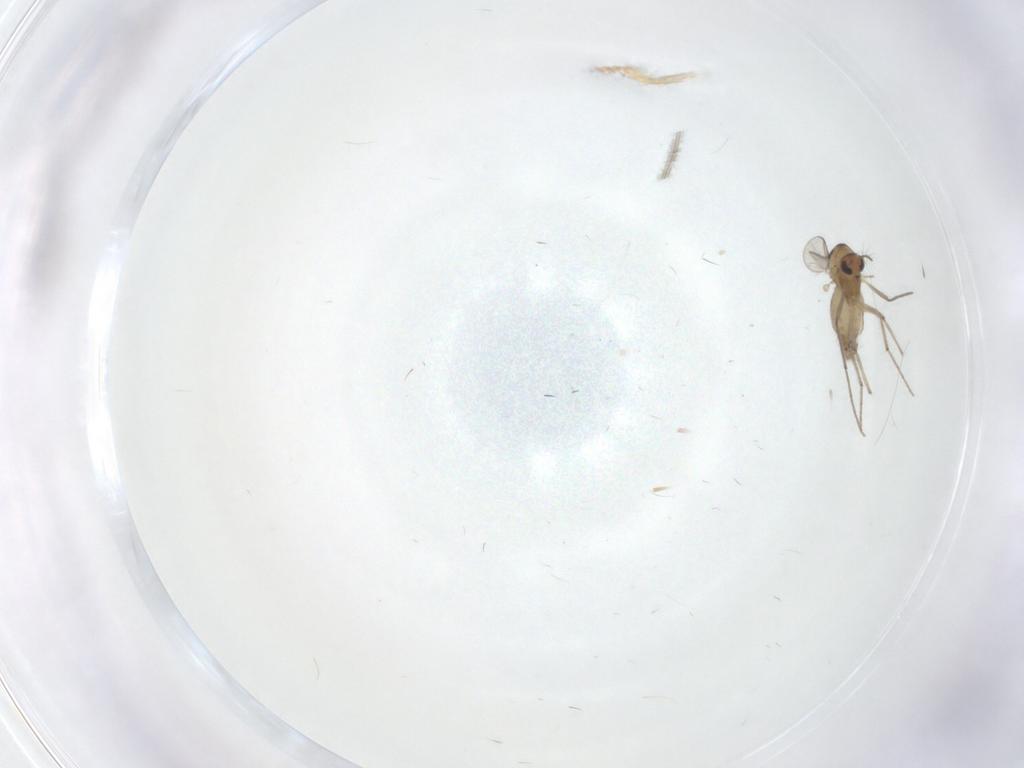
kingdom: Animalia
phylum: Arthropoda
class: Insecta
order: Diptera
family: Chironomidae
